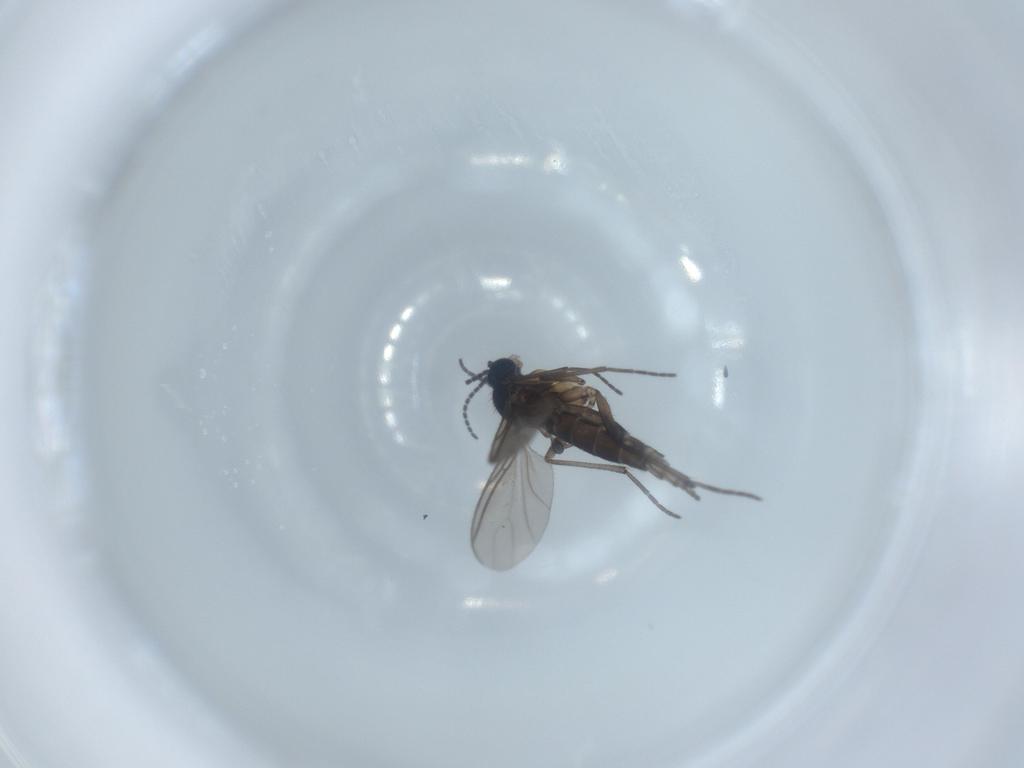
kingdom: Animalia
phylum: Arthropoda
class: Insecta
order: Diptera
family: Sciaridae
